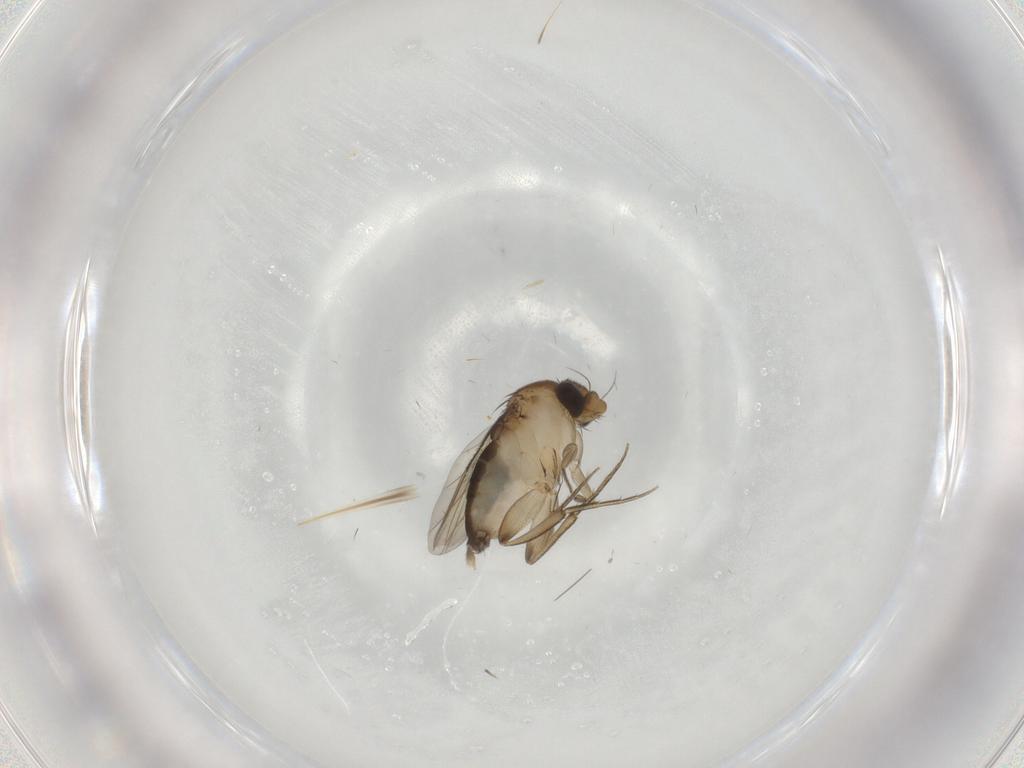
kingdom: Animalia
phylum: Arthropoda
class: Insecta
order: Diptera
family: Phoridae
